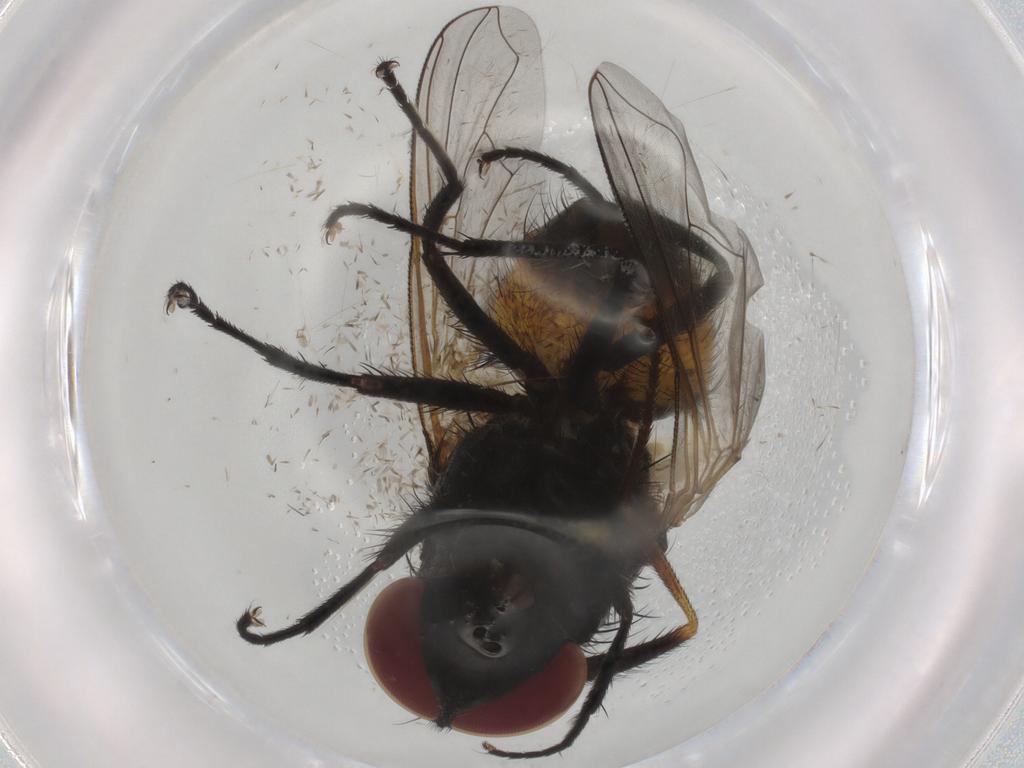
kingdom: Animalia
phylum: Arthropoda
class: Insecta
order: Diptera
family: Muscidae
